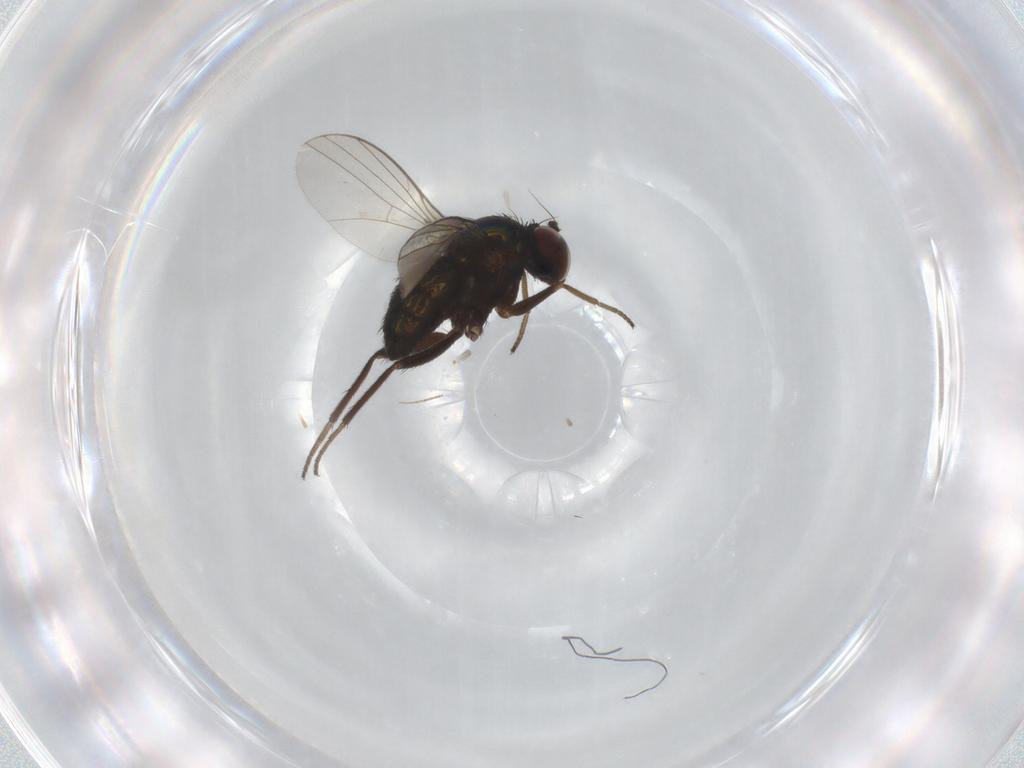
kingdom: Animalia
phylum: Arthropoda
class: Insecta
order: Diptera
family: Dolichopodidae
